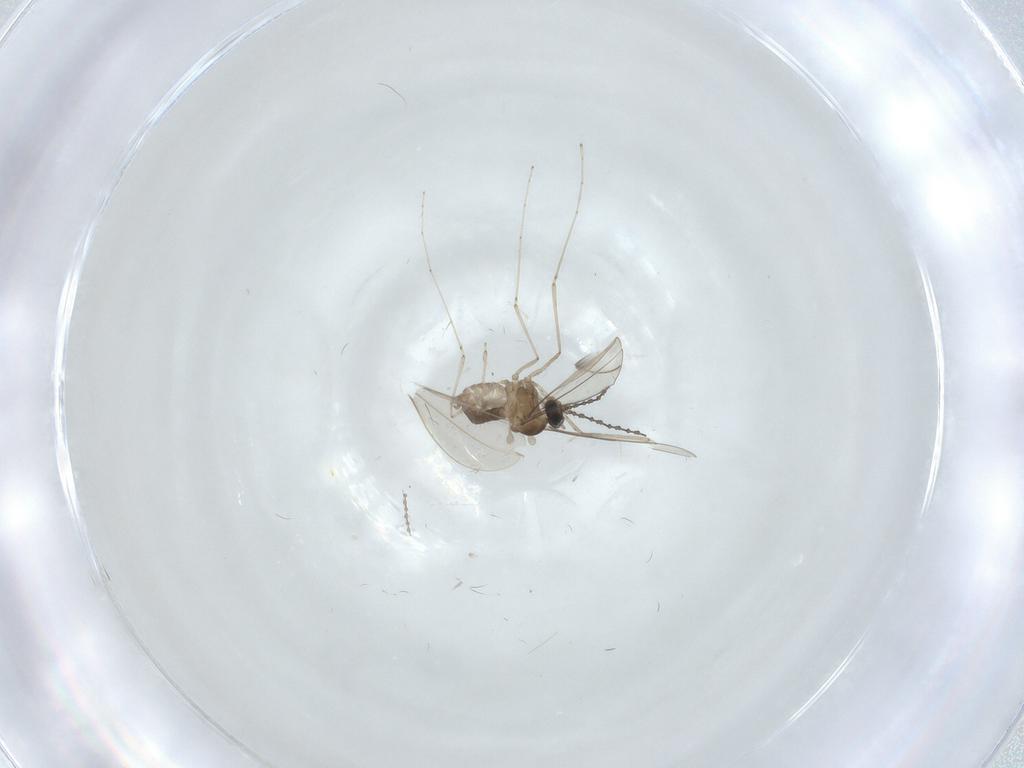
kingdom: Animalia
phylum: Arthropoda
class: Insecta
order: Diptera
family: Cecidomyiidae
